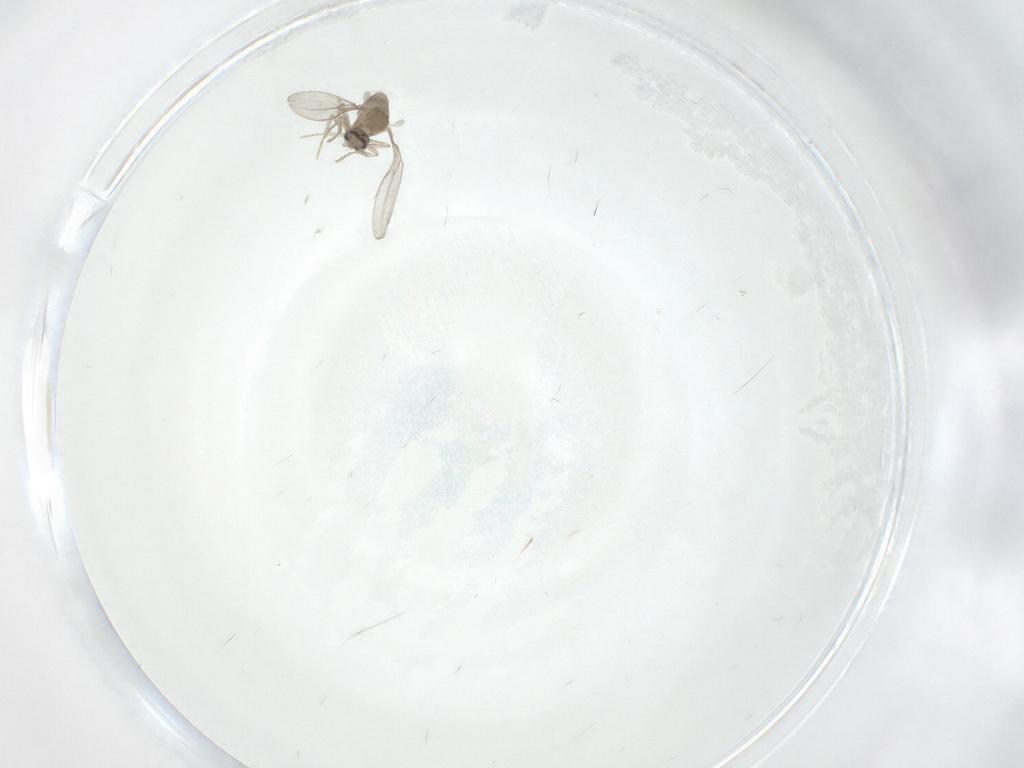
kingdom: Animalia
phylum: Arthropoda
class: Insecta
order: Diptera
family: Cecidomyiidae
